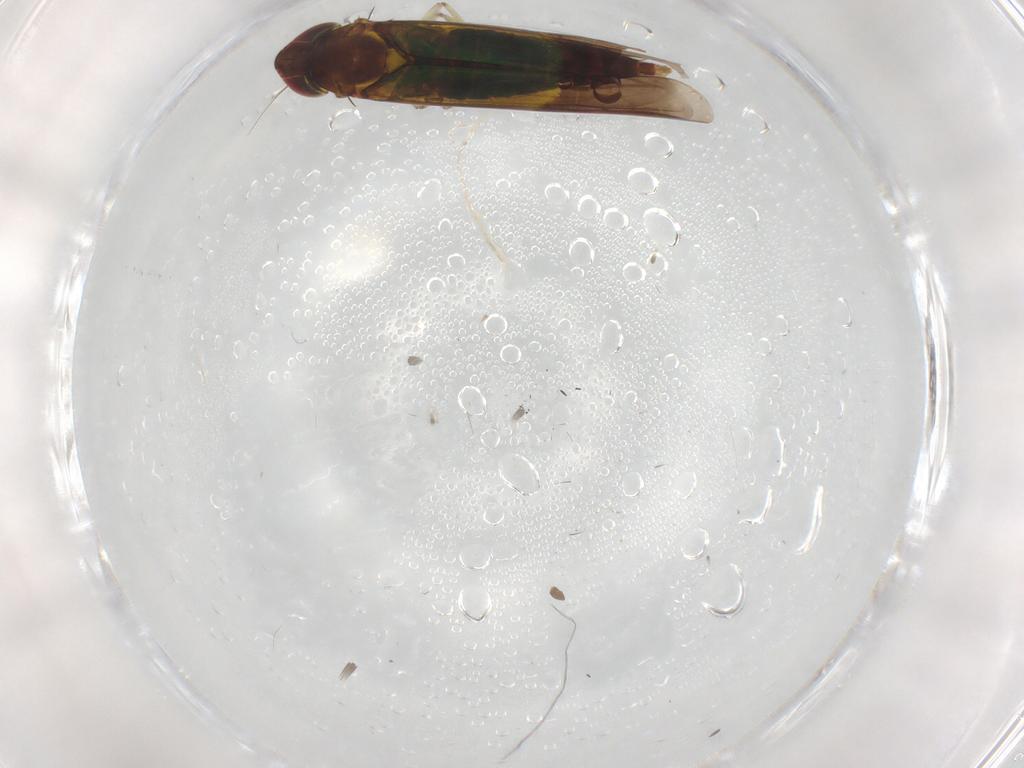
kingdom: Animalia
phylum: Arthropoda
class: Insecta
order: Hemiptera
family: Cicadellidae
